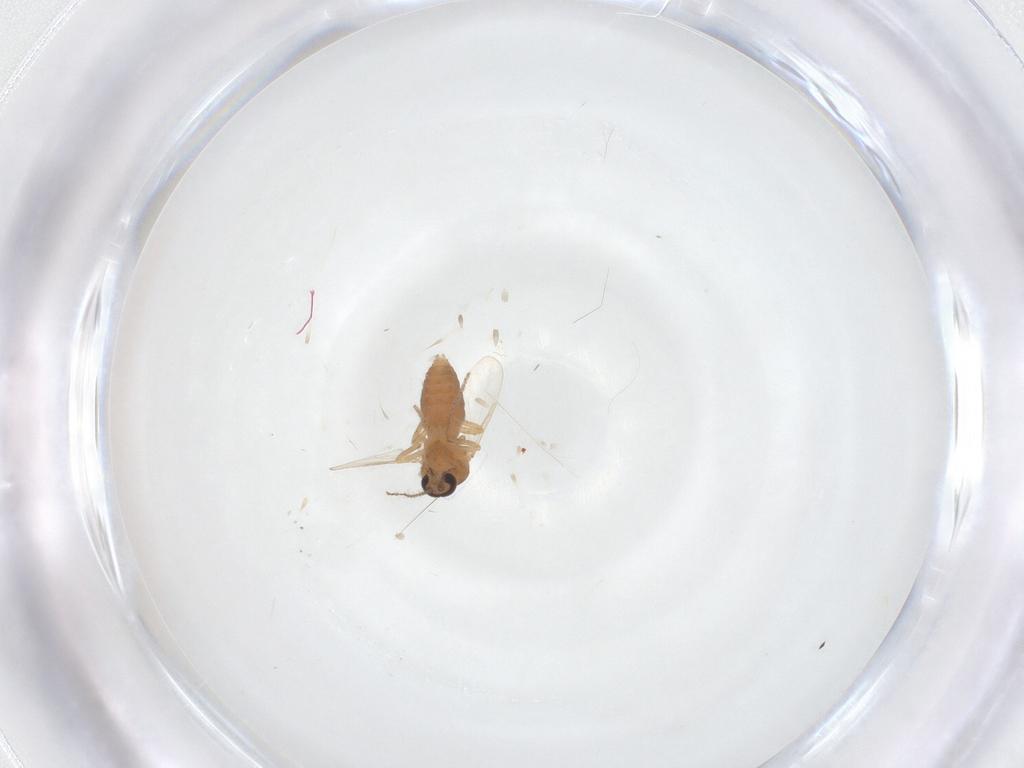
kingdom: Animalia
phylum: Arthropoda
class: Insecta
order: Diptera
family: Ceratopogonidae
